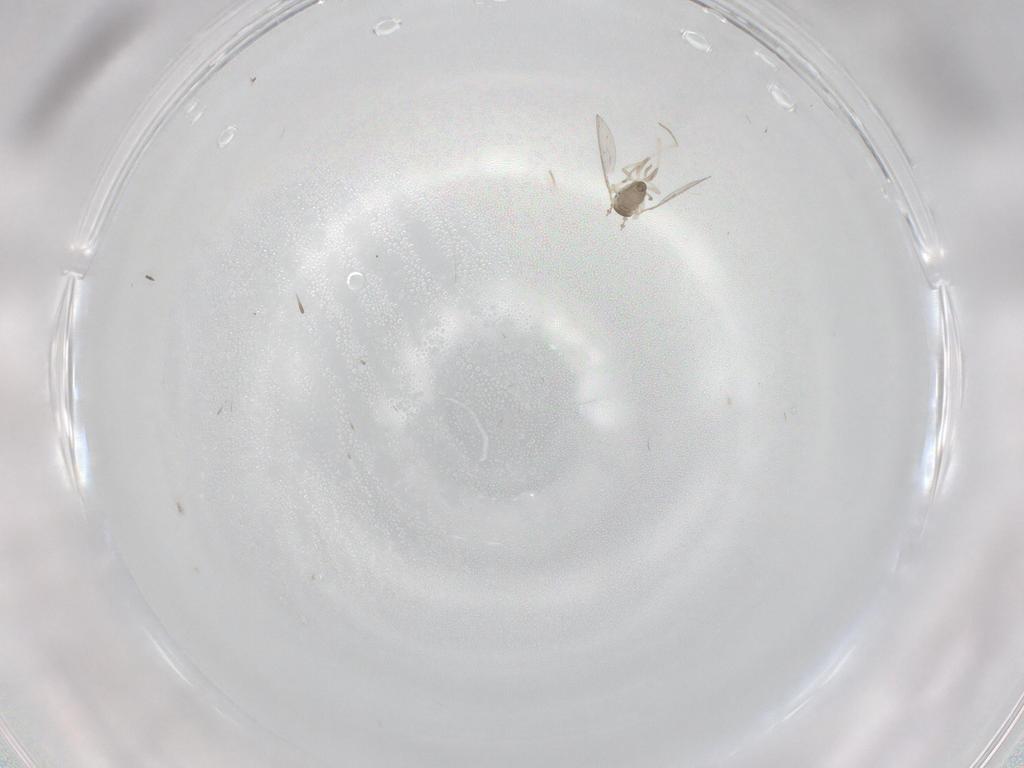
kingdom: Animalia
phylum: Arthropoda
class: Insecta
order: Diptera
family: Cecidomyiidae
